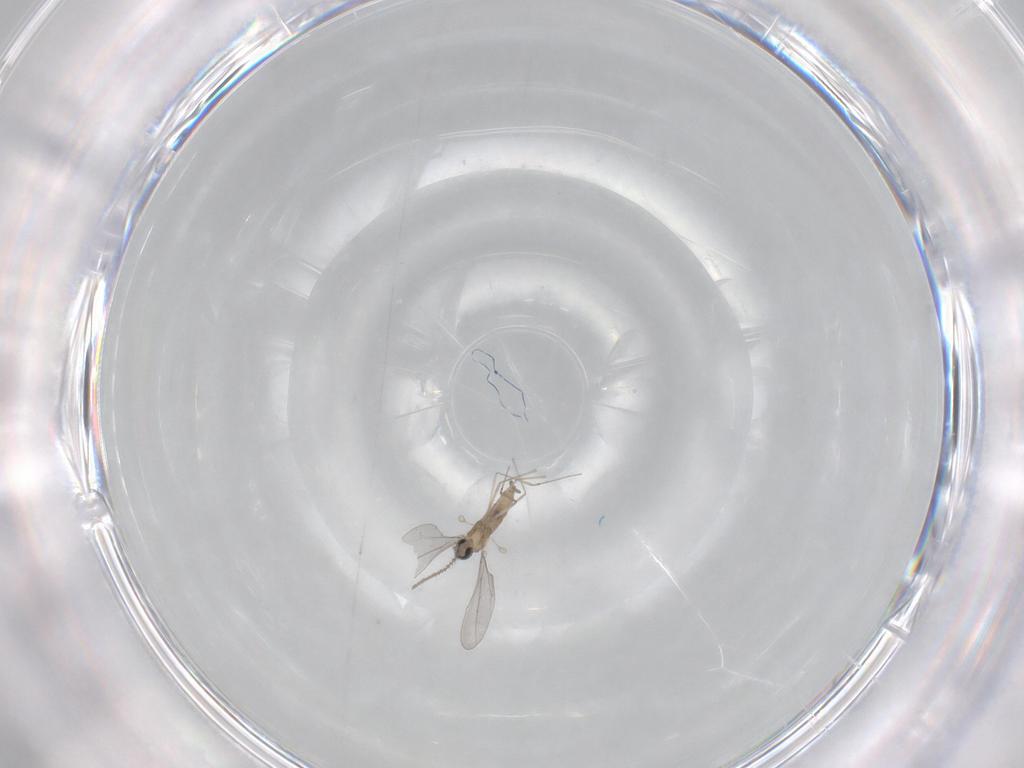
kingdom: Animalia
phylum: Arthropoda
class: Insecta
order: Diptera
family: Cecidomyiidae
